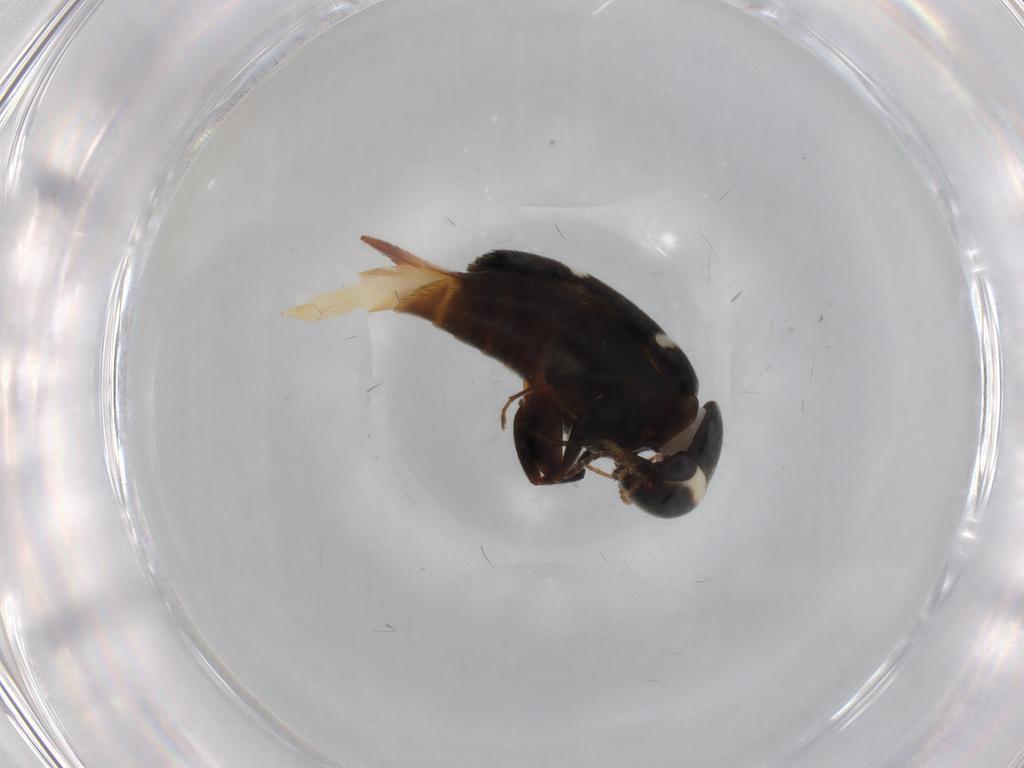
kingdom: Animalia
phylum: Arthropoda
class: Insecta
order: Coleoptera
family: Mordellidae
